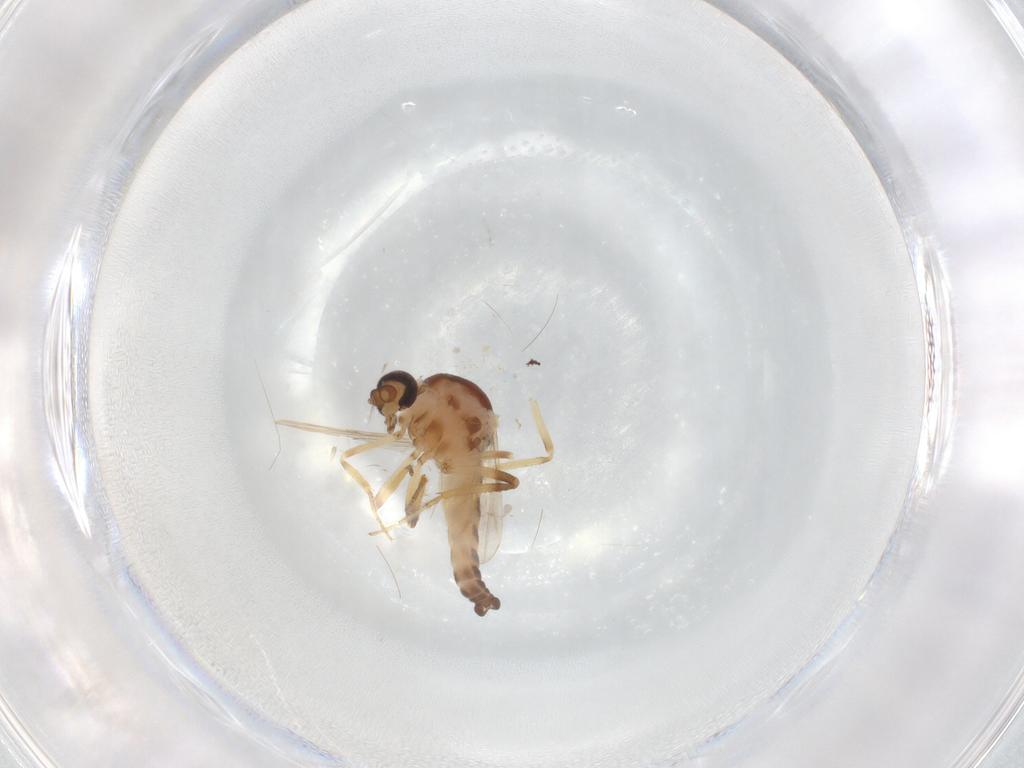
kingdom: Animalia
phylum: Arthropoda
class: Insecta
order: Diptera
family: Ceratopogonidae
